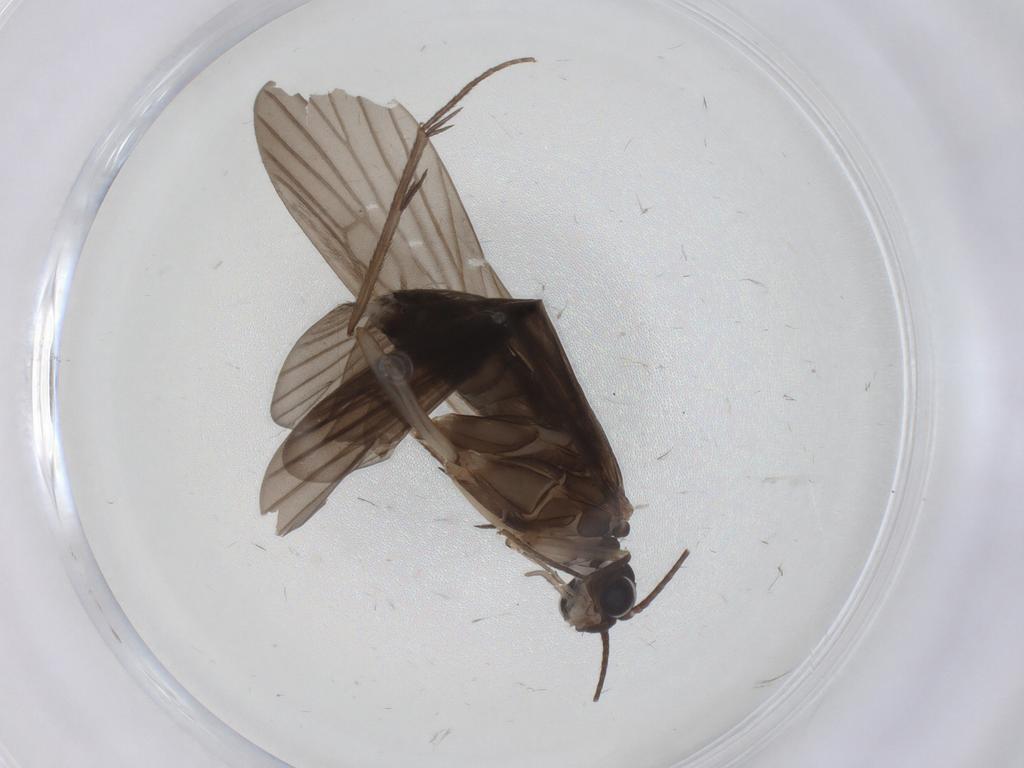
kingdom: Animalia
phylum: Arthropoda
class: Insecta
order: Trichoptera
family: Philopotamidae
